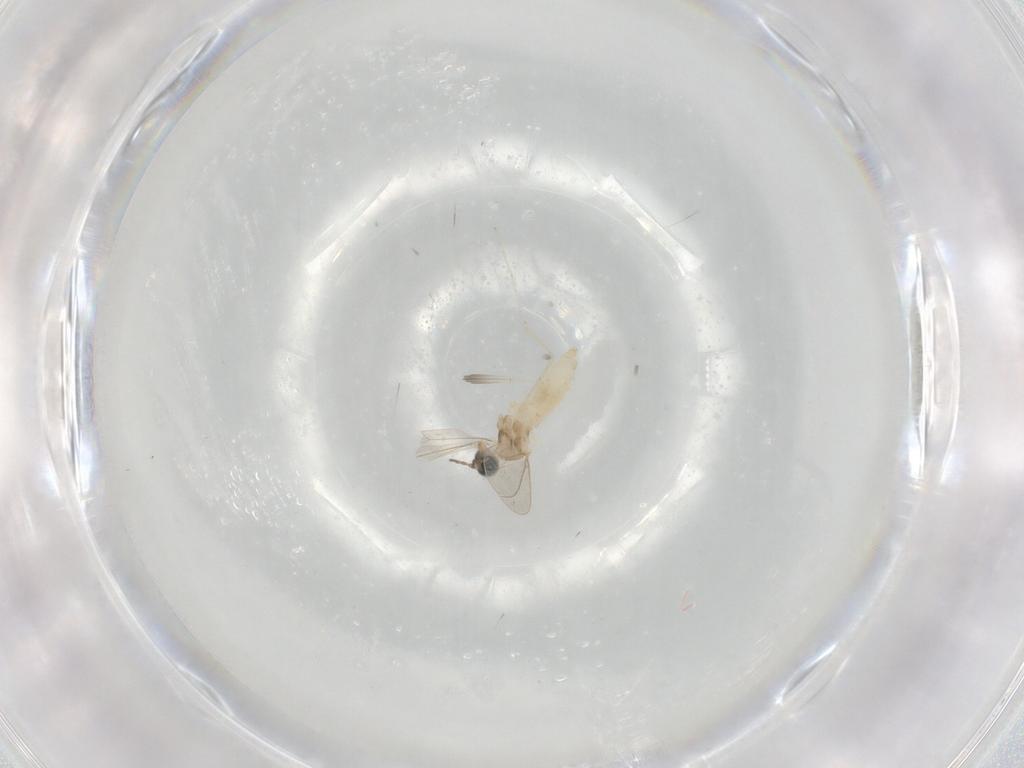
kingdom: Animalia
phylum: Arthropoda
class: Insecta
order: Diptera
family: Cecidomyiidae
